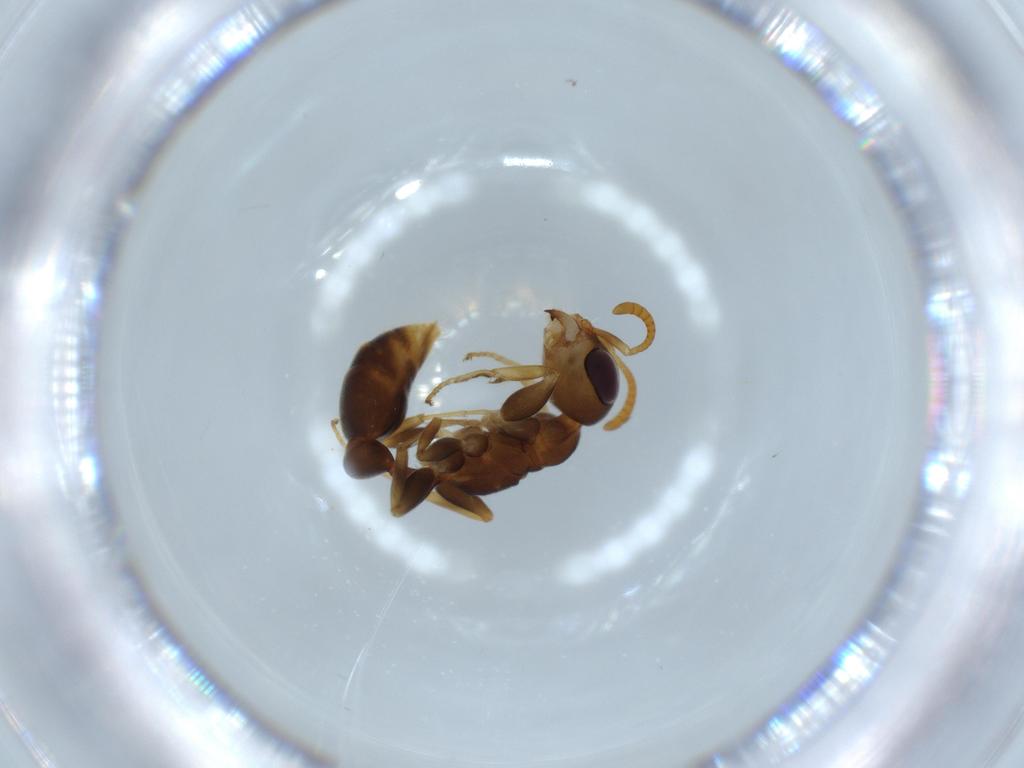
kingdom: Animalia
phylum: Arthropoda
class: Insecta
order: Hymenoptera
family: Formicidae
